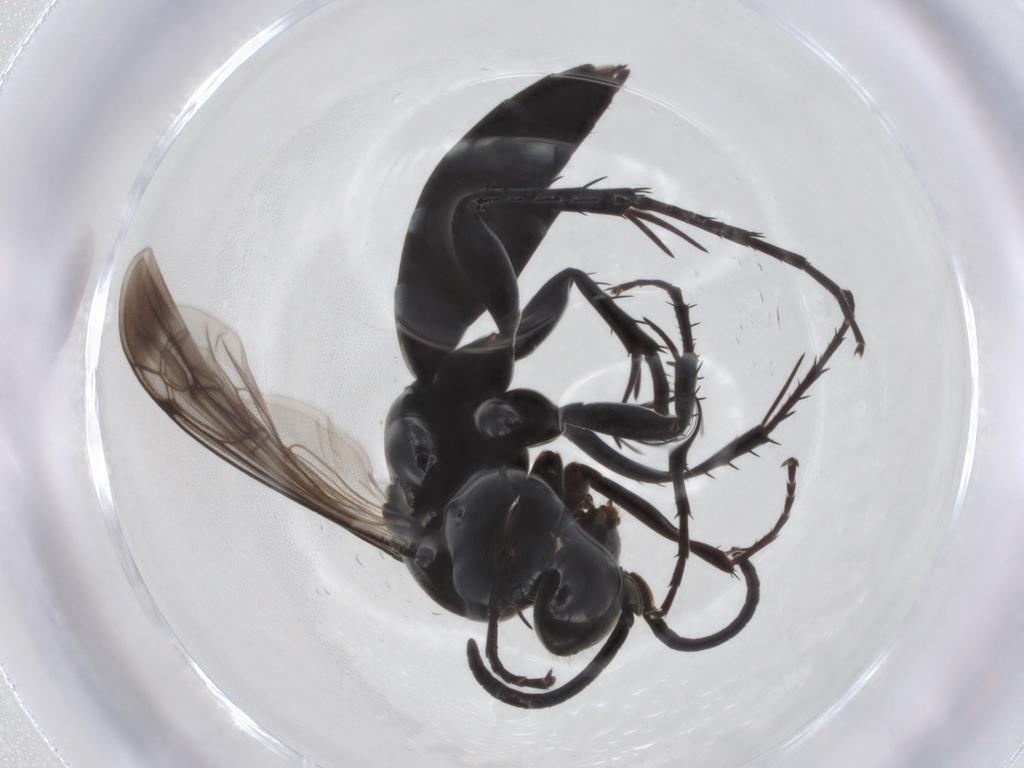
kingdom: Animalia
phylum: Arthropoda
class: Insecta
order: Hymenoptera
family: Pompilidae
